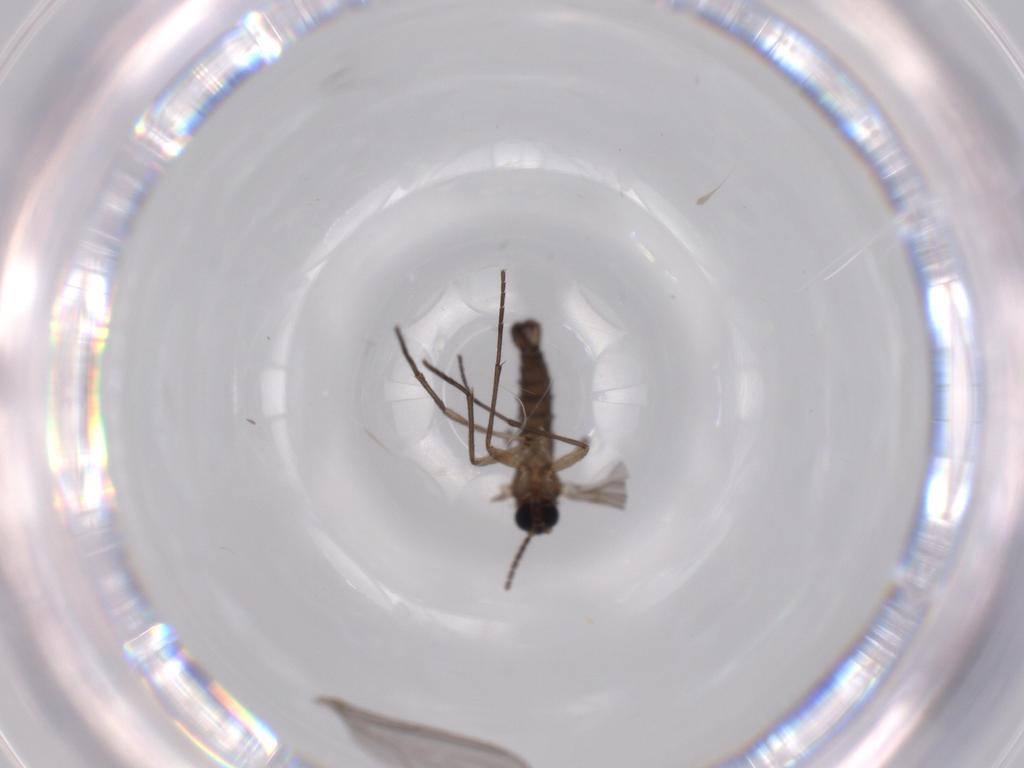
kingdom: Animalia
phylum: Arthropoda
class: Insecta
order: Diptera
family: Sciaridae
